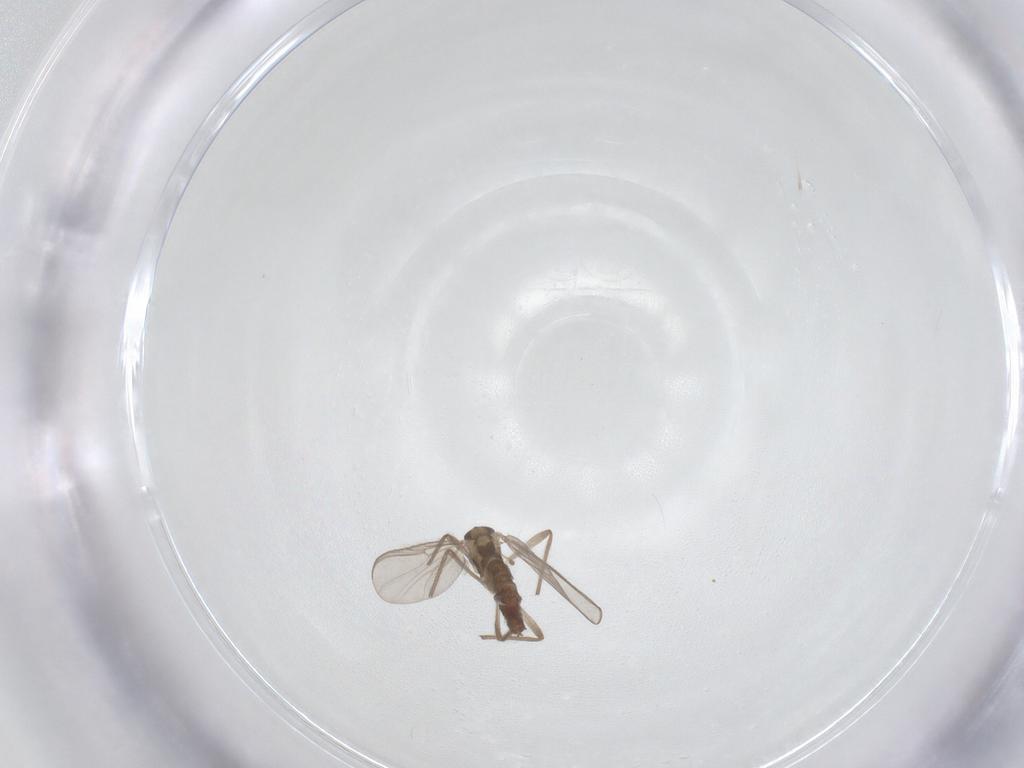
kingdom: Animalia
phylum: Arthropoda
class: Insecta
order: Diptera
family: Chironomidae
